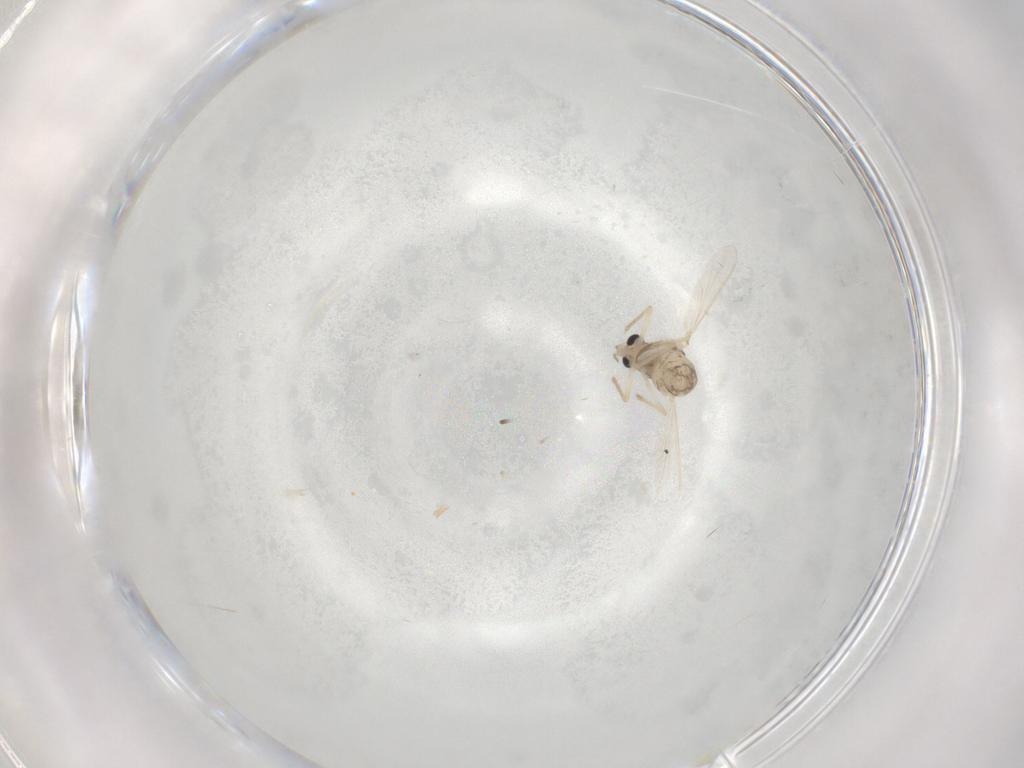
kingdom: Animalia
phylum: Arthropoda
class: Insecta
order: Diptera
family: Chironomidae
